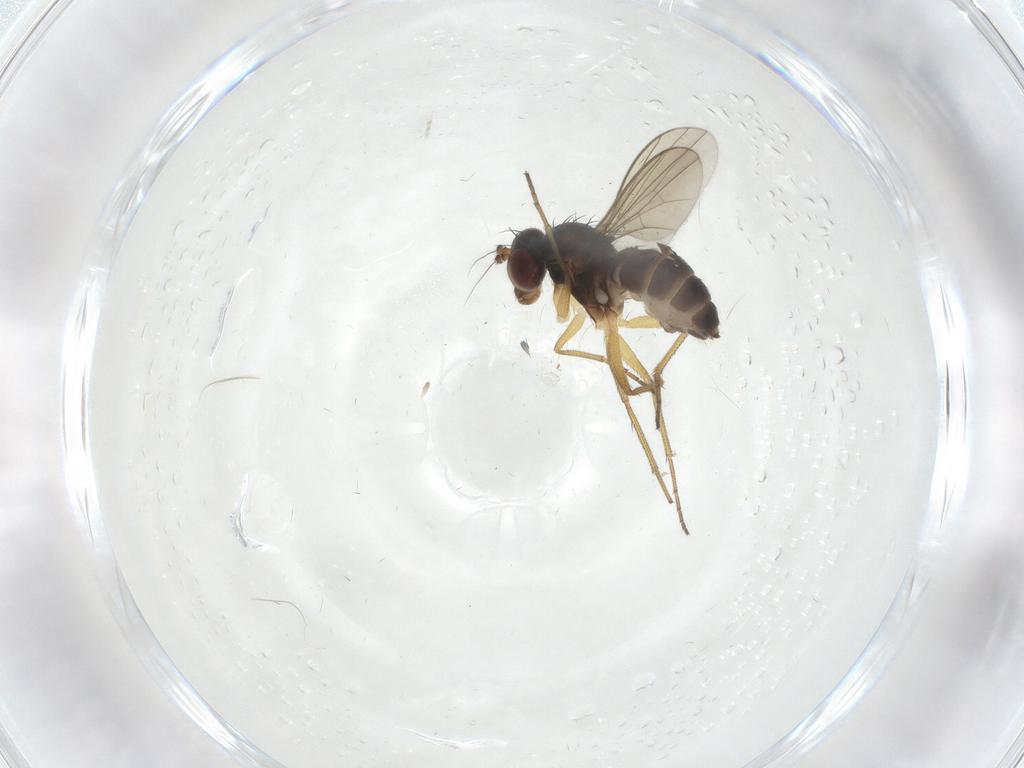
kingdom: Animalia
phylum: Arthropoda
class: Insecta
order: Diptera
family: Dolichopodidae
